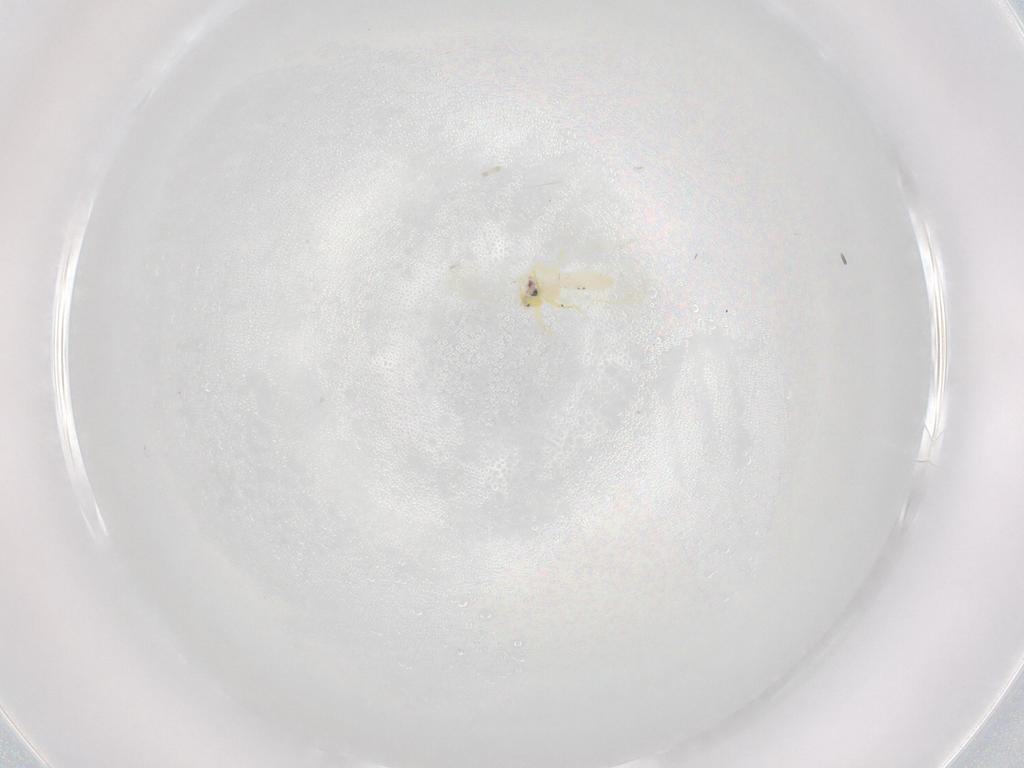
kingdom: Animalia
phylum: Arthropoda
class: Insecta
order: Hemiptera
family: Aleyrodidae
